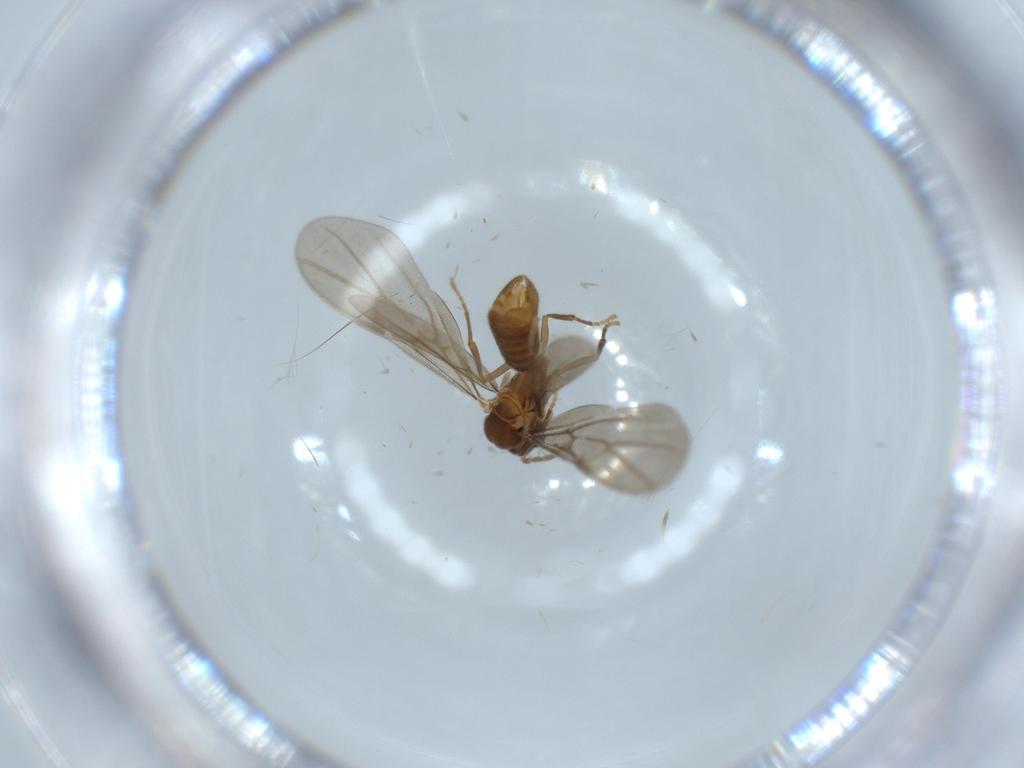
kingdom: Animalia
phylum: Arthropoda
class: Insecta
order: Hymenoptera
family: Formicidae
